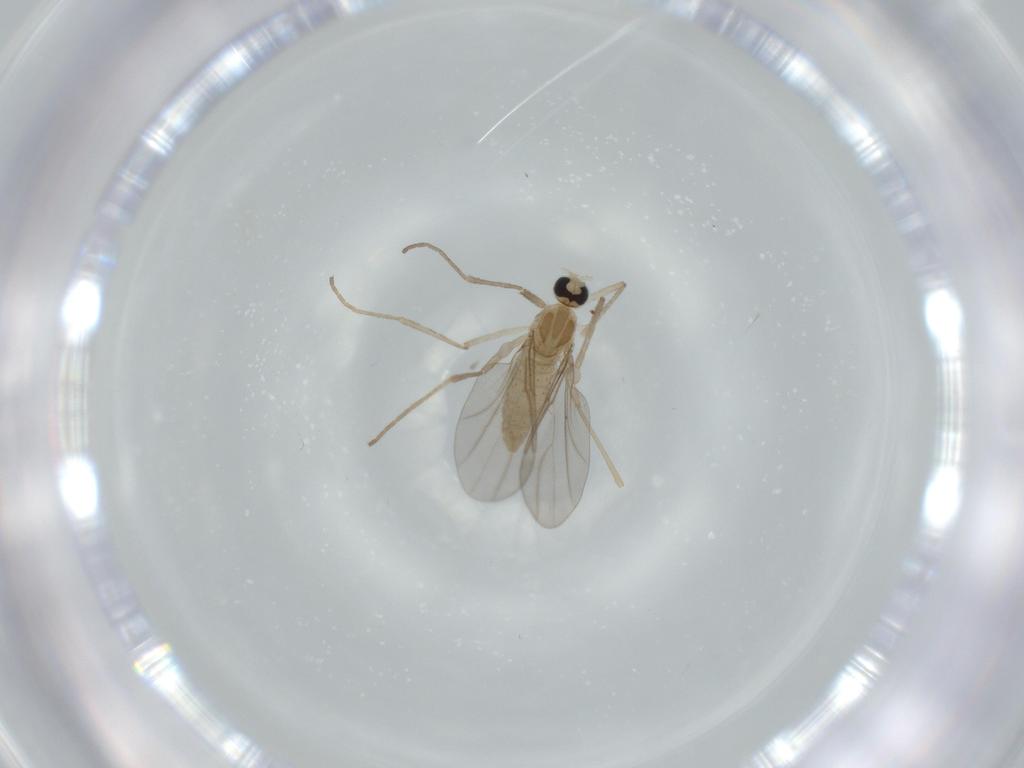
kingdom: Animalia
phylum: Arthropoda
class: Insecta
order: Diptera
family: Cecidomyiidae
